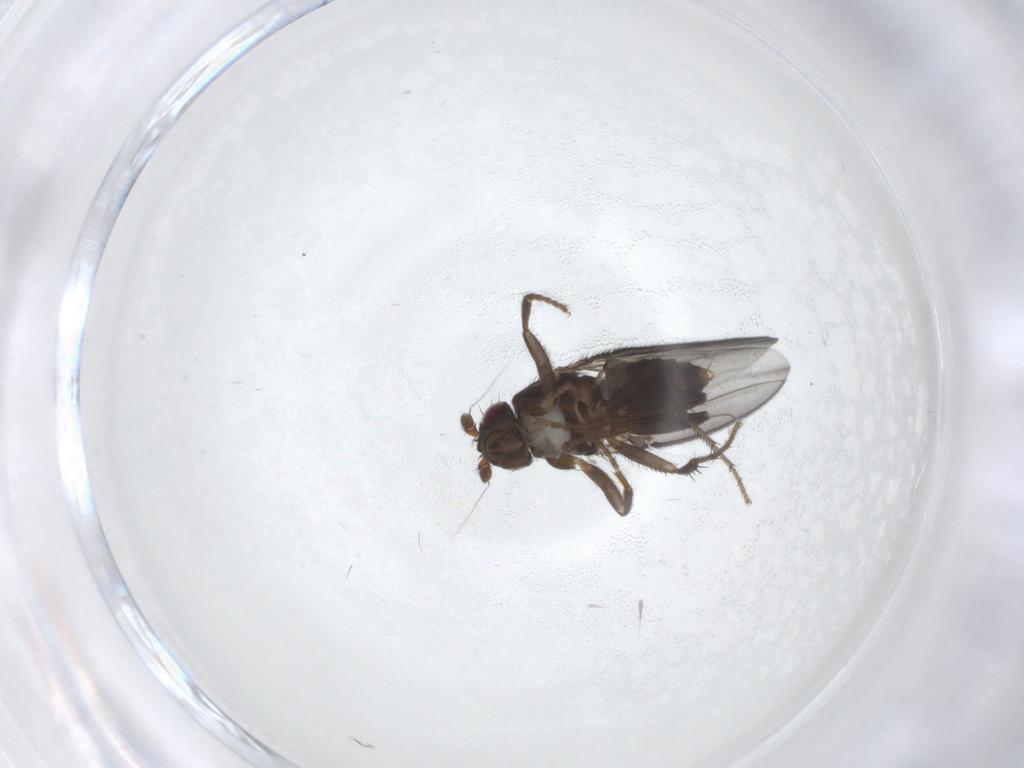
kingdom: Animalia
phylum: Arthropoda
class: Insecta
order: Diptera
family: Sphaeroceridae
